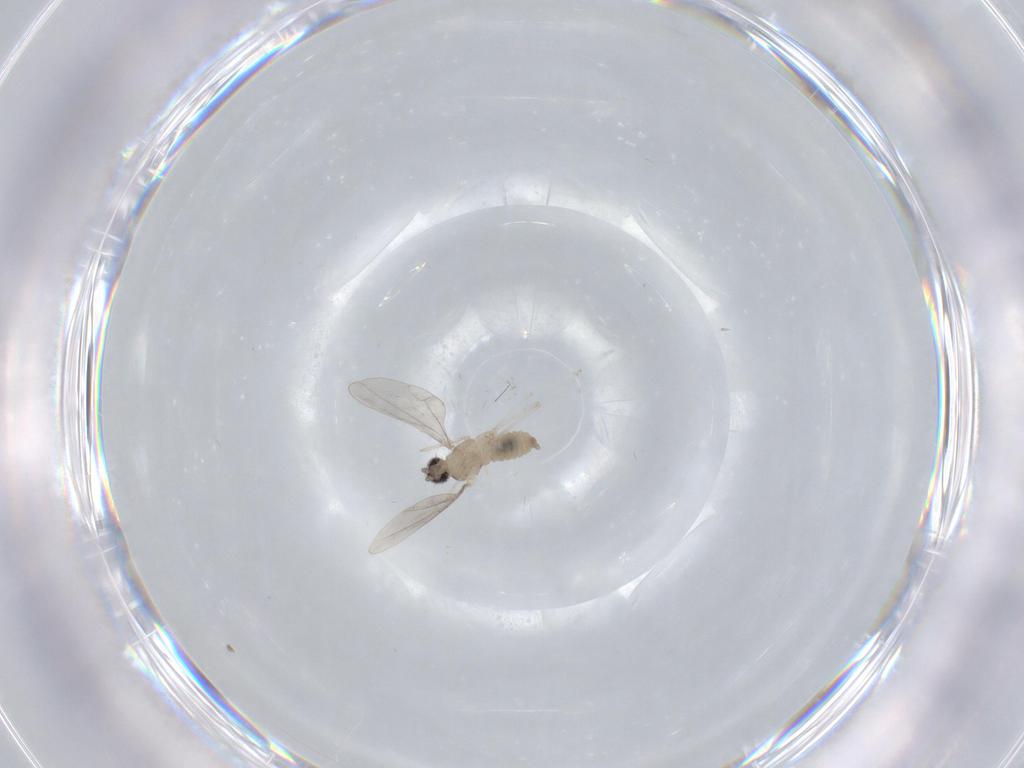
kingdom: Animalia
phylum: Arthropoda
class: Insecta
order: Diptera
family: Cecidomyiidae
